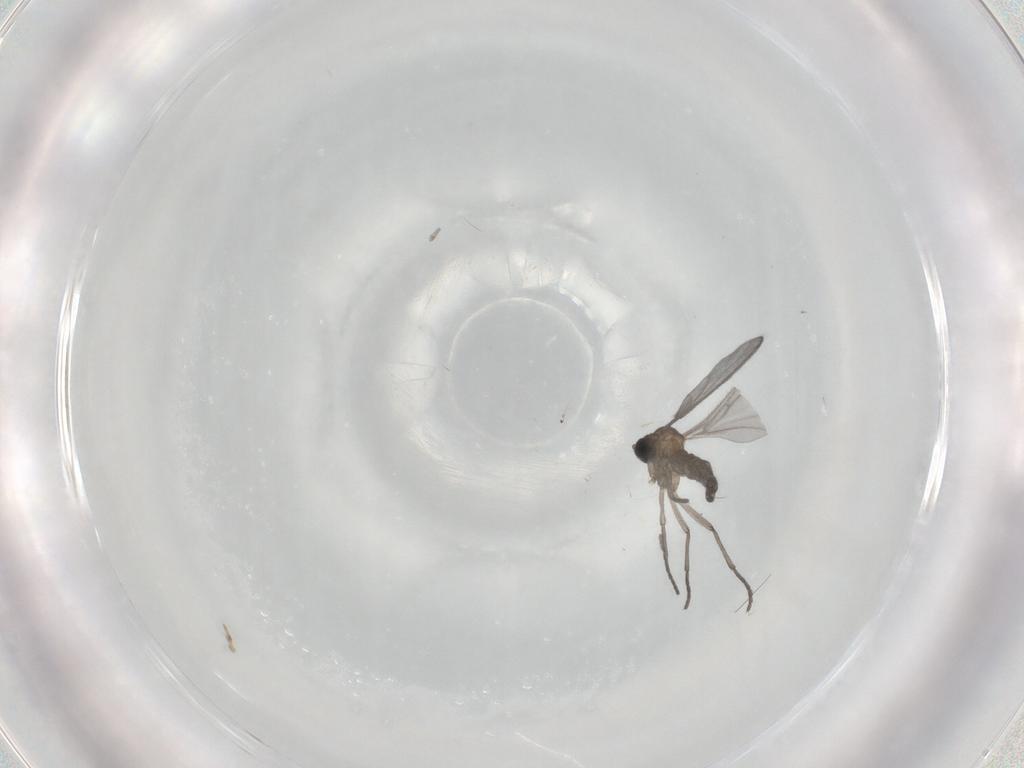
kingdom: Animalia
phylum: Arthropoda
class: Insecta
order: Diptera
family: Sciaridae
